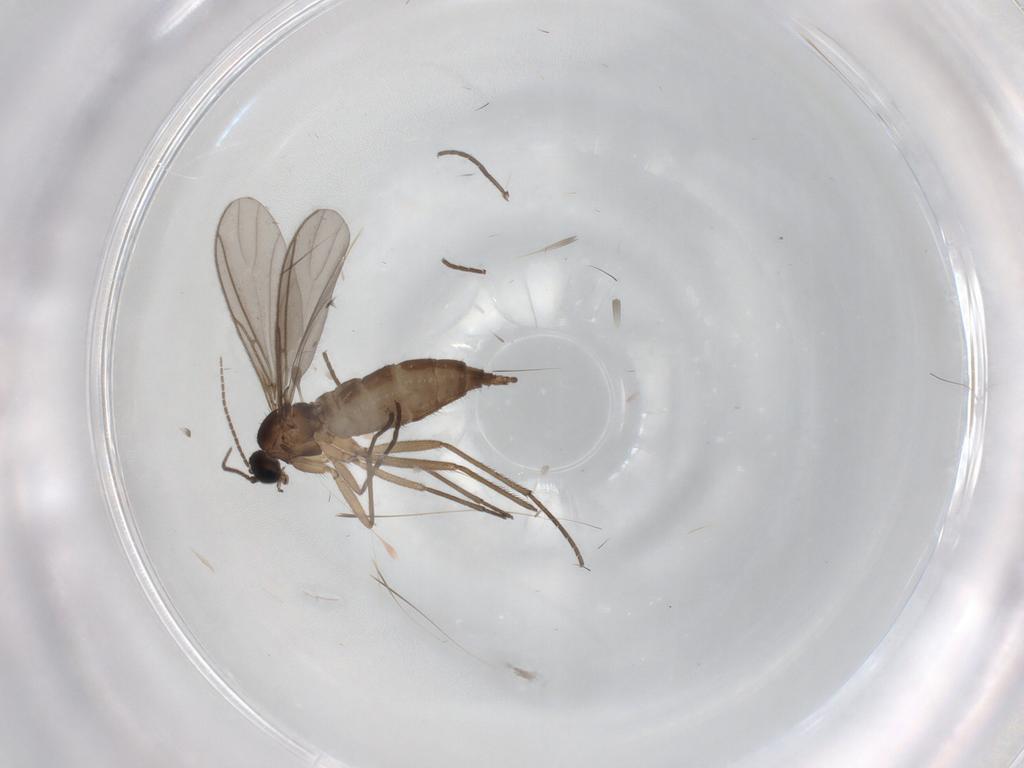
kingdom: Animalia
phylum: Arthropoda
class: Insecta
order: Diptera
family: Sciaridae
